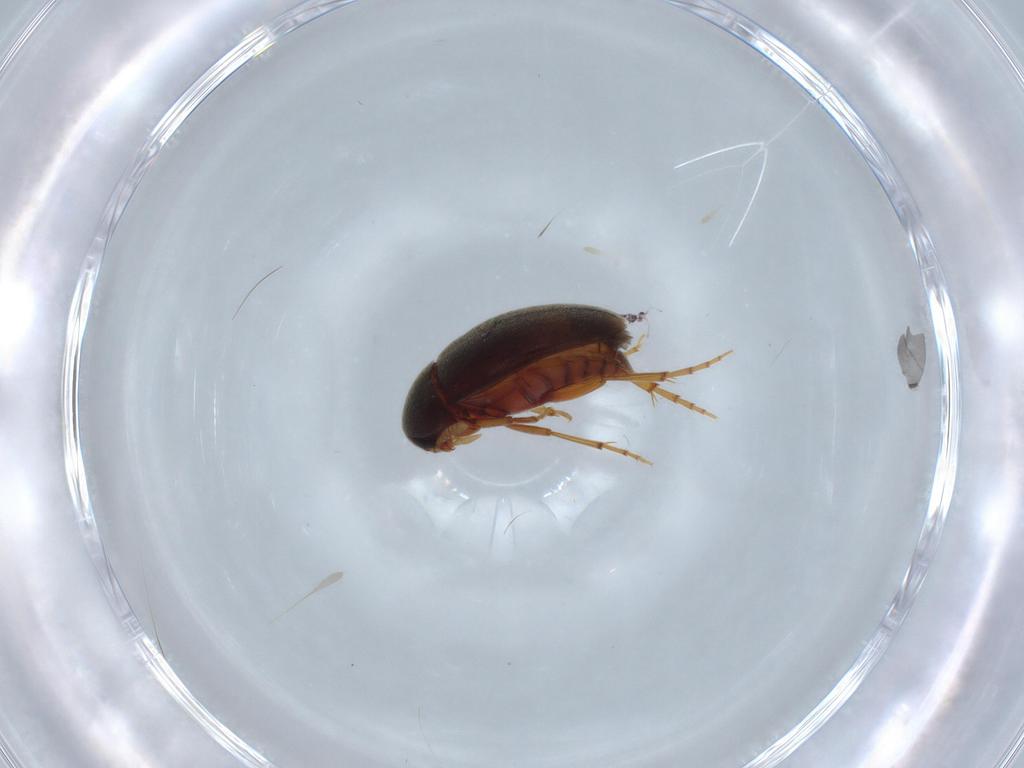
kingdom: Animalia
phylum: Arthropoda
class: Insecta
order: Coleoptera
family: Scraptiidae
